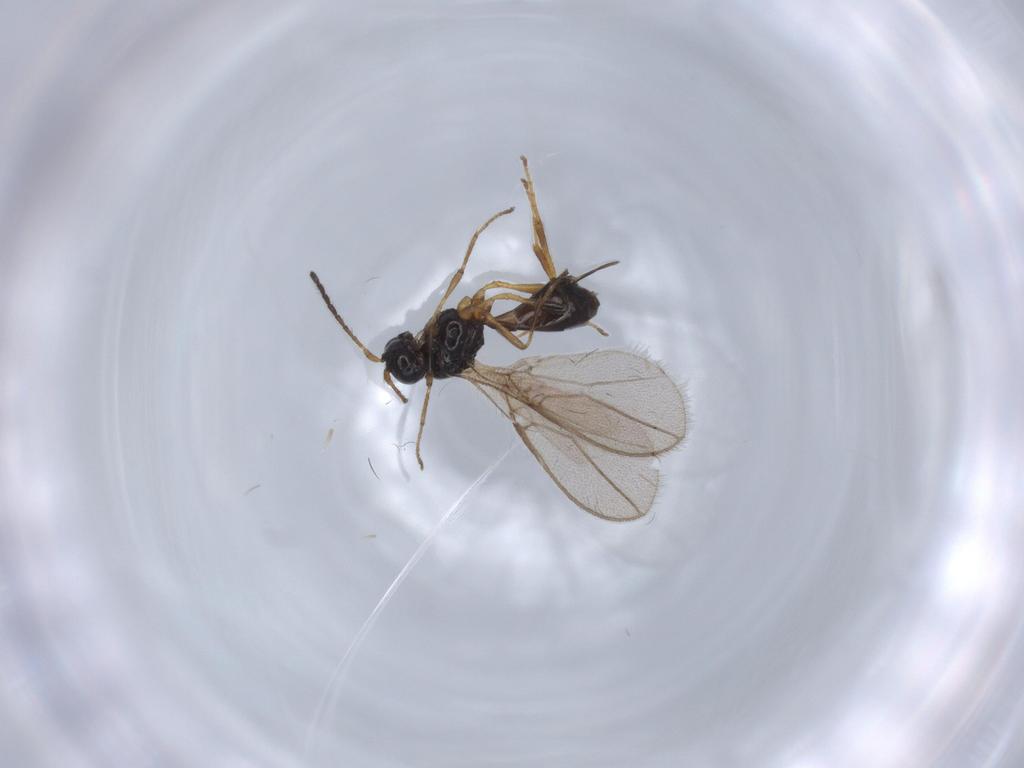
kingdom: Animalia
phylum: Arthropoda
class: Insecta
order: Hymenoptera
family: Braconidae
